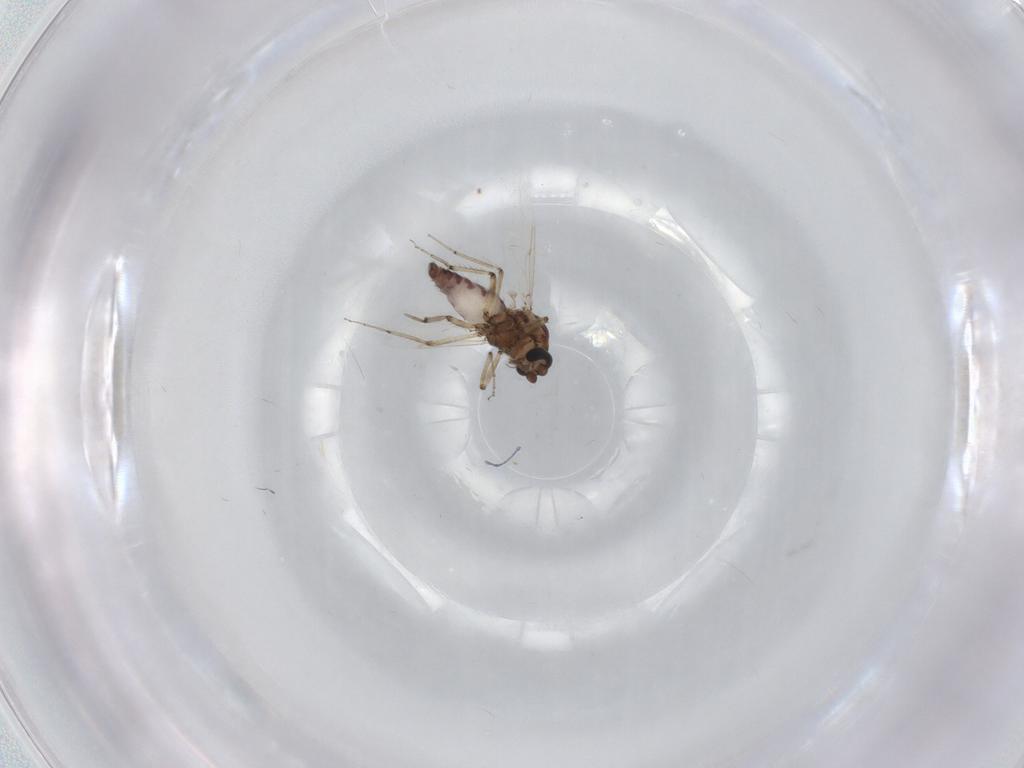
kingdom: Animalia
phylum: Arthropoda
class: Insecta
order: Diptera
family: Ceratopogonidae
